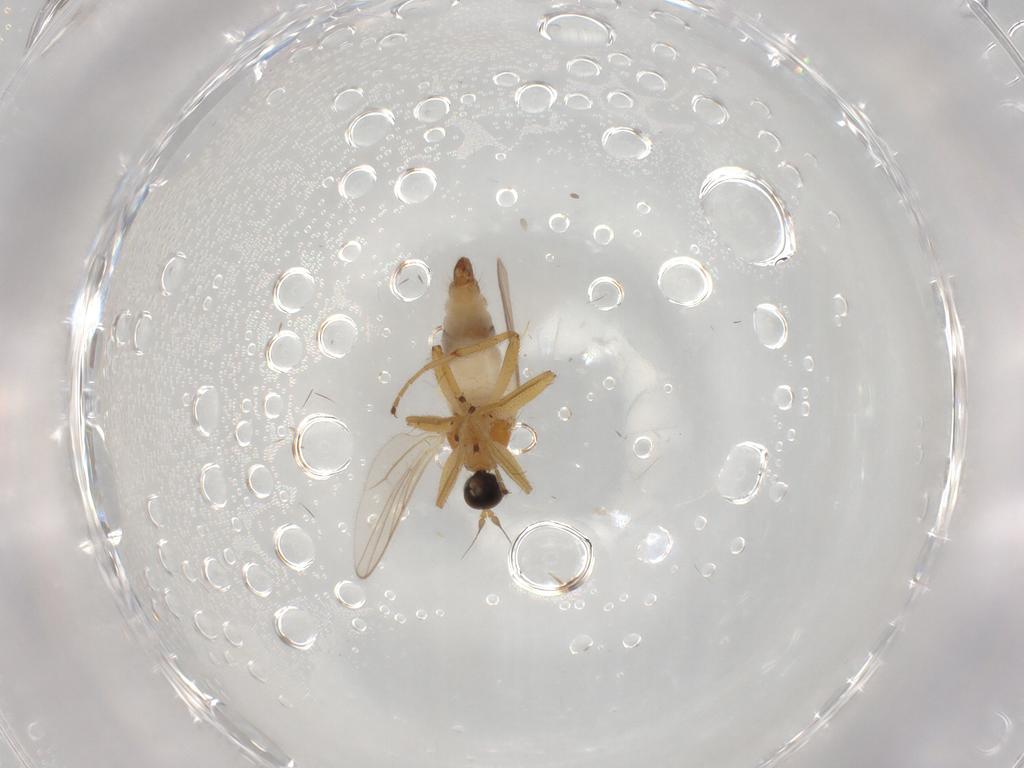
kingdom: Animalia
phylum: Arthropoda
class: Insecta
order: Diptera
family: Hybotidae
